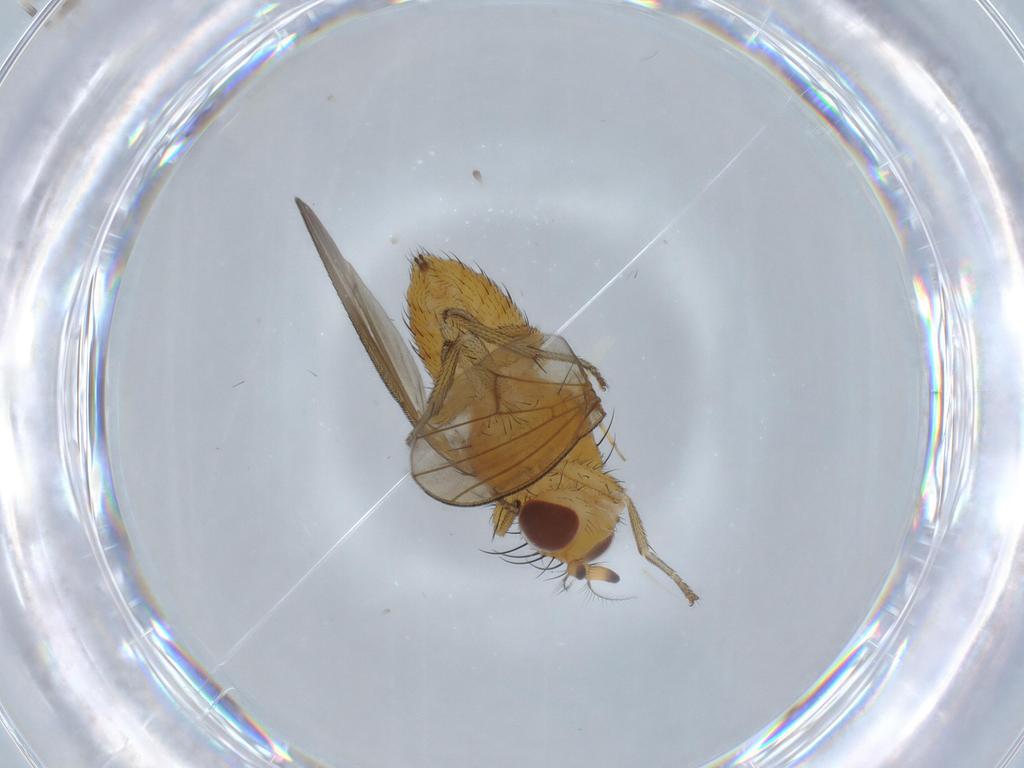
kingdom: Animalia
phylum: Arthropoda
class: Insecta
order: Diptera
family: Lauxaniidae
